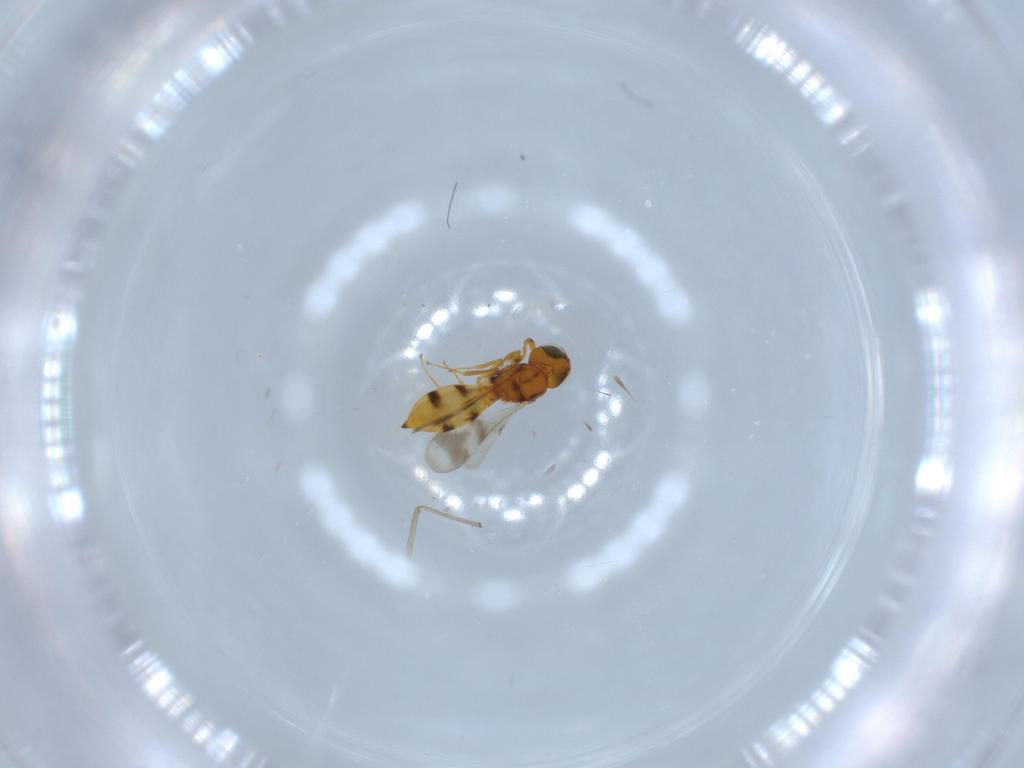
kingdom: Animalia
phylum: Arthropoda
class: Insecta
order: Hymenoptera
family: Scelionidae
